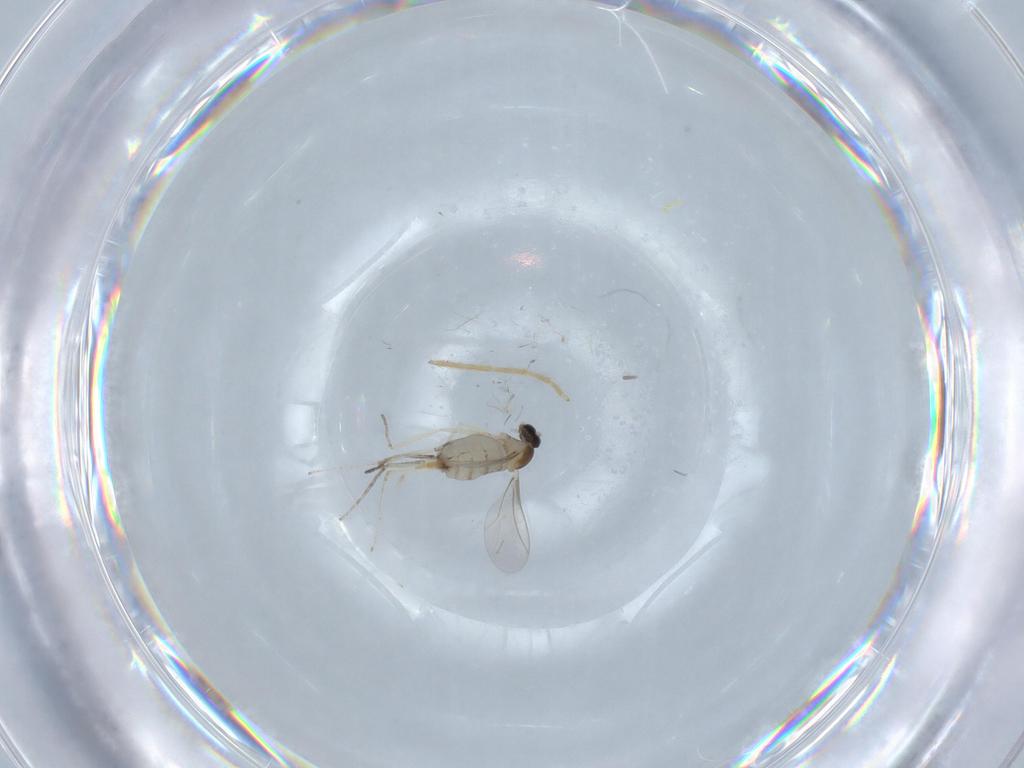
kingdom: Animalia
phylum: Arthropoda
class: Insecta
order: Diptera
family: Cecidomyiidae
